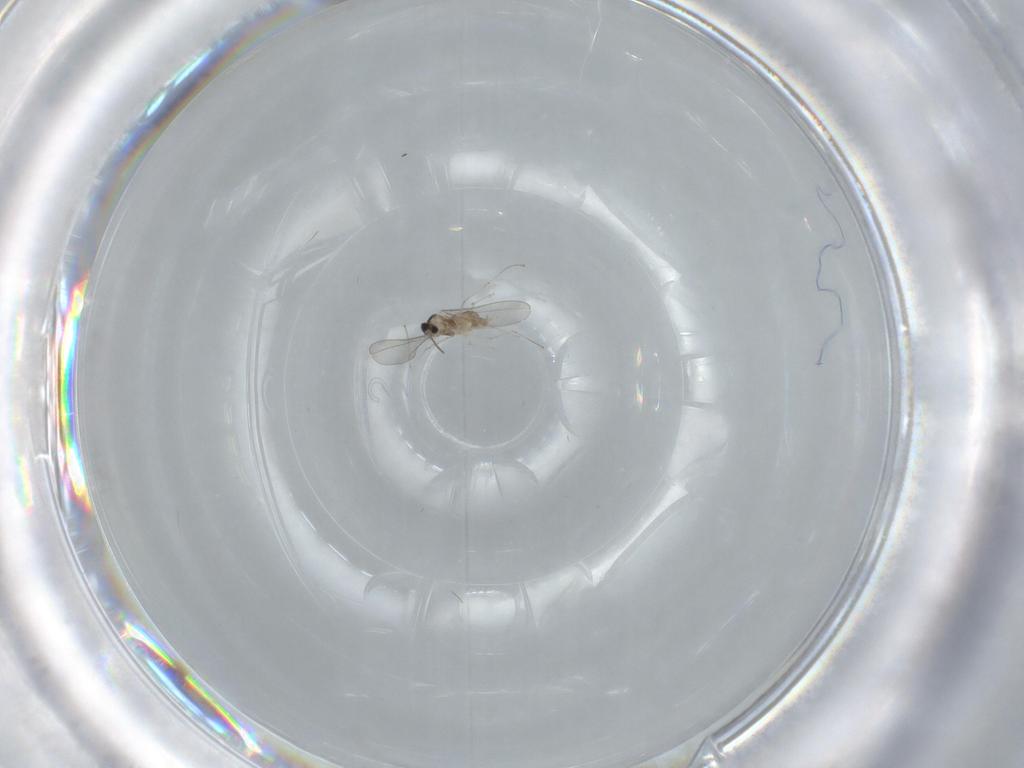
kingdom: Animalia
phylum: Arthropoda
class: Insecta
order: Diptera
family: Cecidomyiidae
